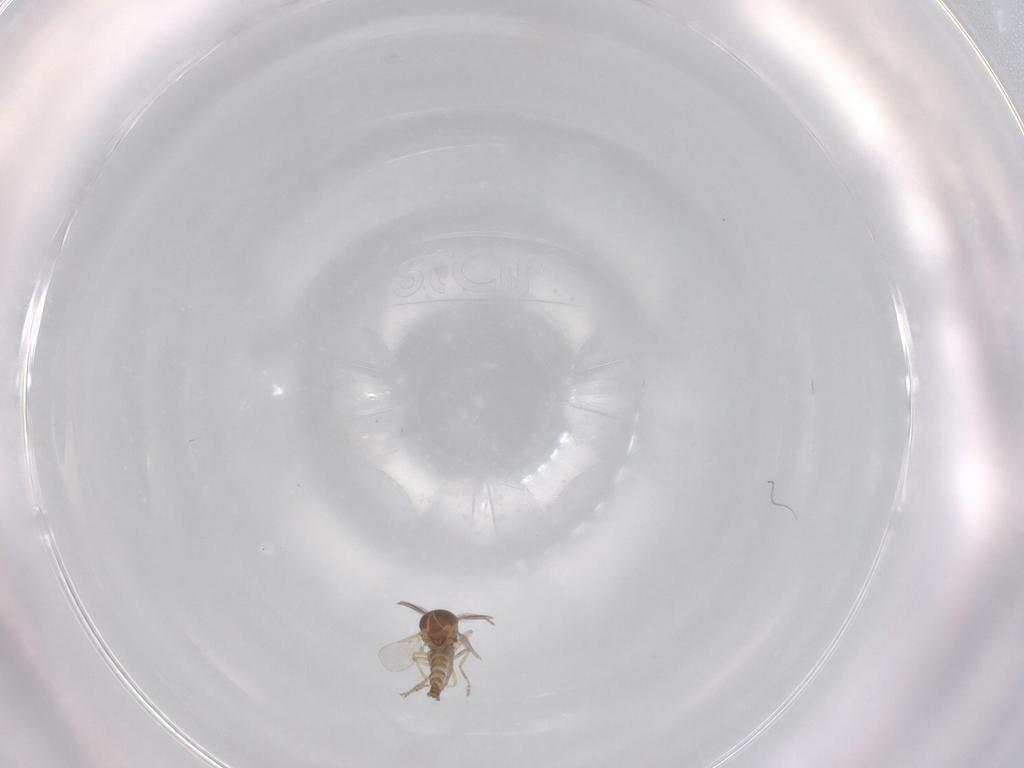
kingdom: Animalia
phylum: Arthropoda
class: Insecta
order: Diptera
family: Ceratopogonidae
